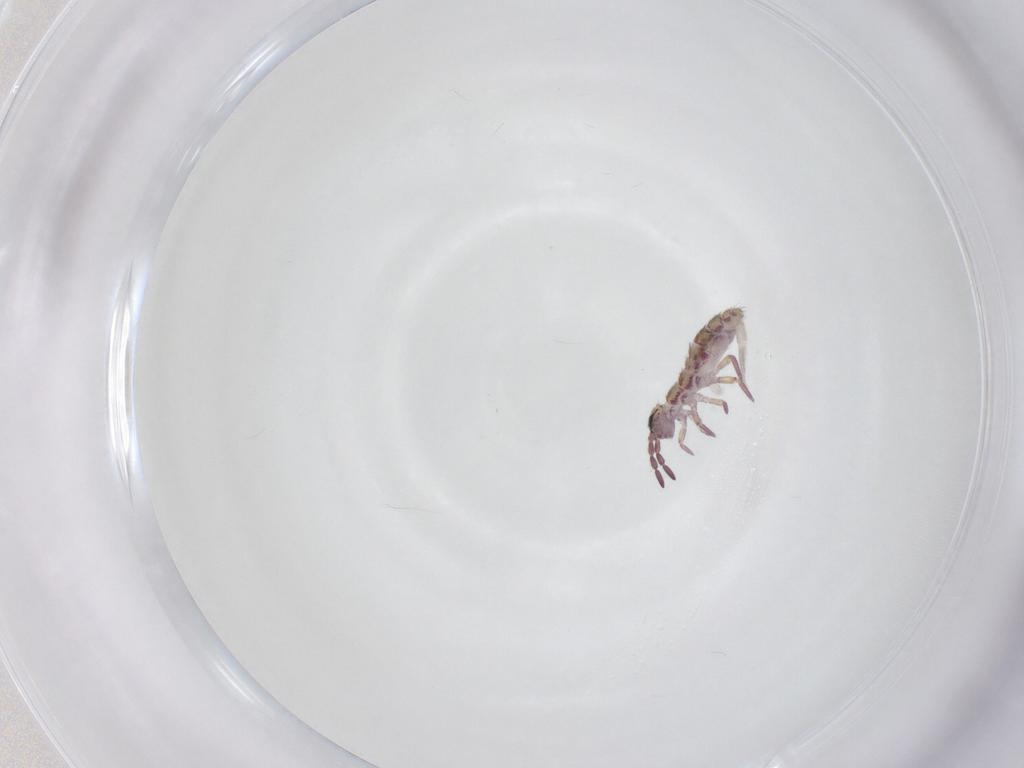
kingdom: Animalia
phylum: Arthropoda
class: Collembola
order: Entomobryomorpha
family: Isotomidae
